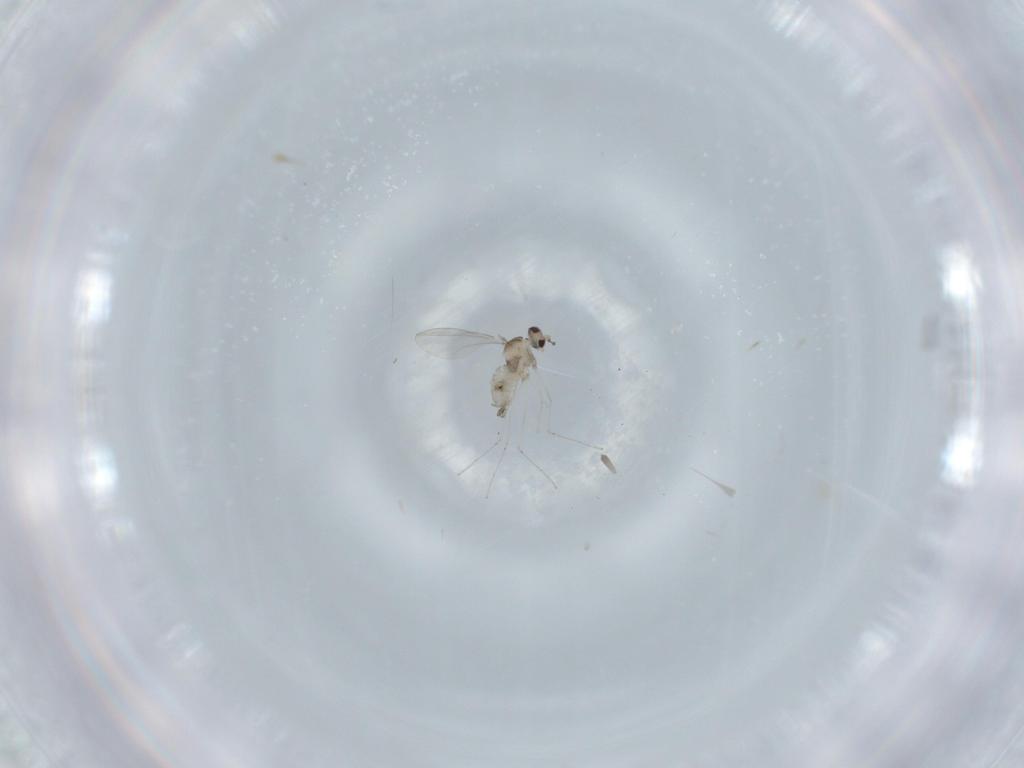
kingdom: Animalia
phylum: Arthropoda
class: Insecta
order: Diptera
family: Cecidomyiidae
